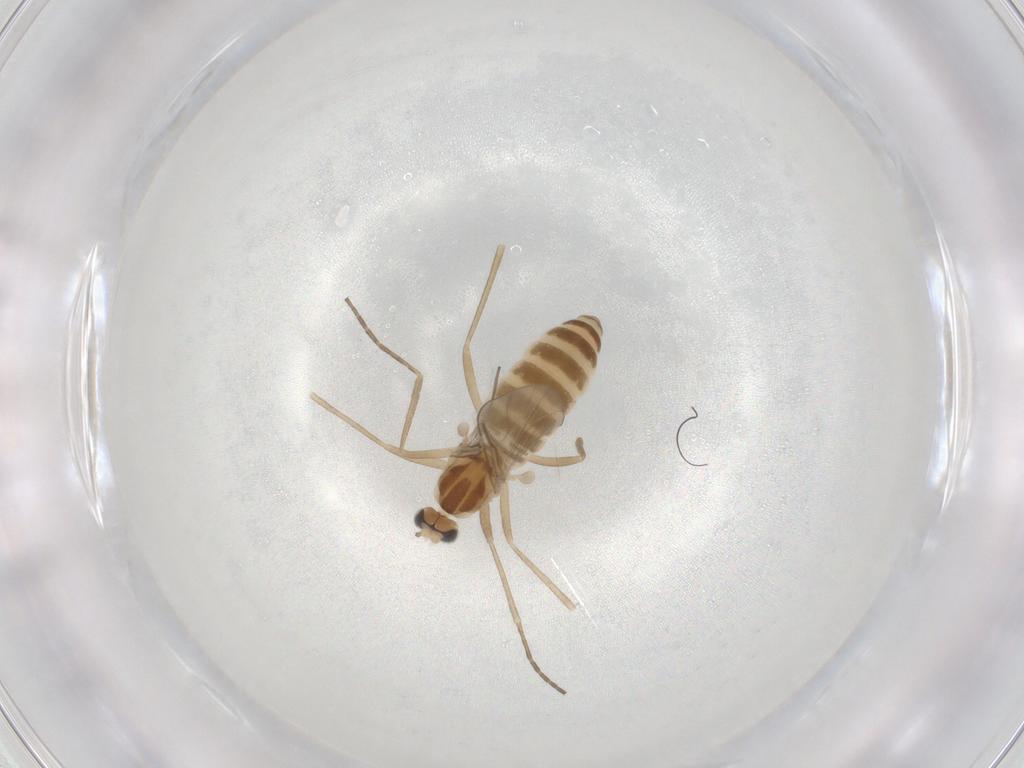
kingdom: Animalia
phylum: Arthropoda
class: Insecta
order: Diptera
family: Cecidomyiidae
